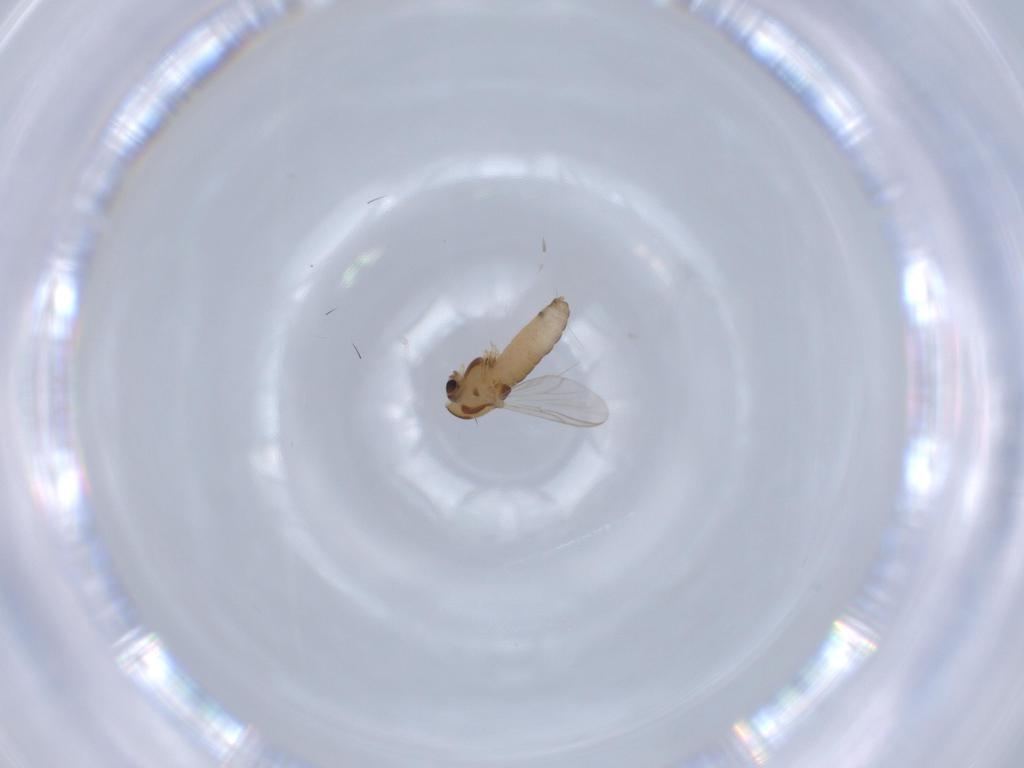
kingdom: Animalia
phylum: Arthropoda
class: Insecta
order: Diptera
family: Chironomidae
